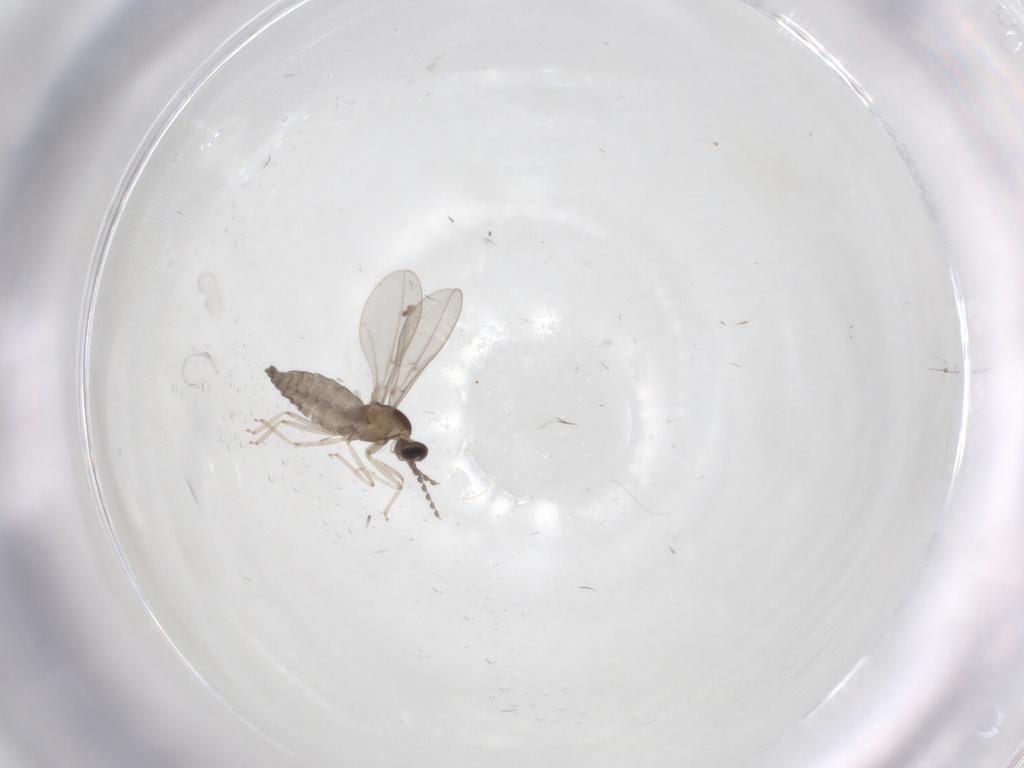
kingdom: Animalia
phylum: Arthropoda
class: Insecta
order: Diptera
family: Cecidomyiidae
